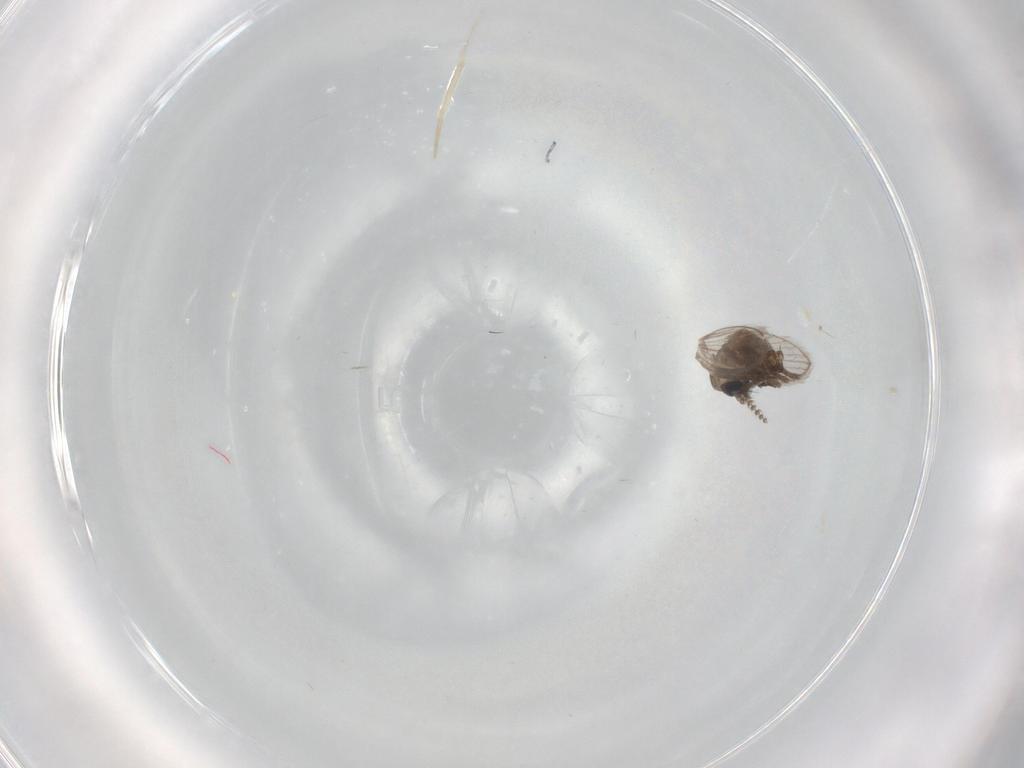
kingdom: Animalia
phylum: Arthropoda
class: Insecta
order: Diptera
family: Psychodidae
